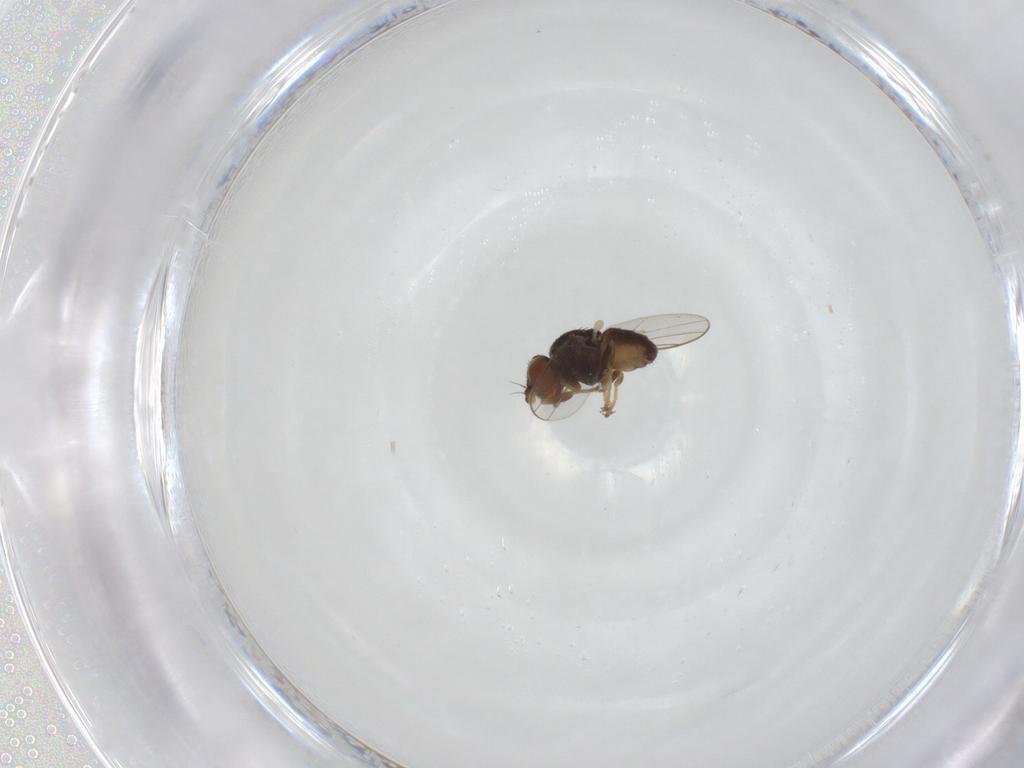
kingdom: Animalia
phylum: Arthropoda
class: Insecta
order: Diptera
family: Chloropidae
